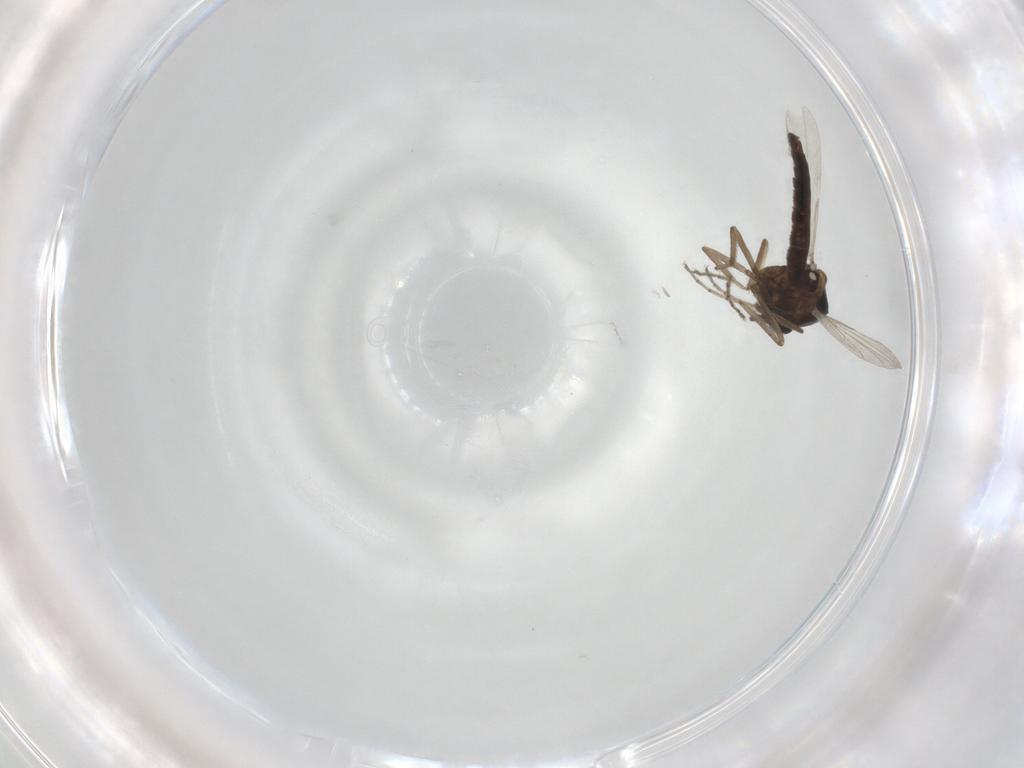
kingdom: Animalia
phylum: Arthropoda
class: Insecta
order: Diptera
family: Ceratopogonidae
